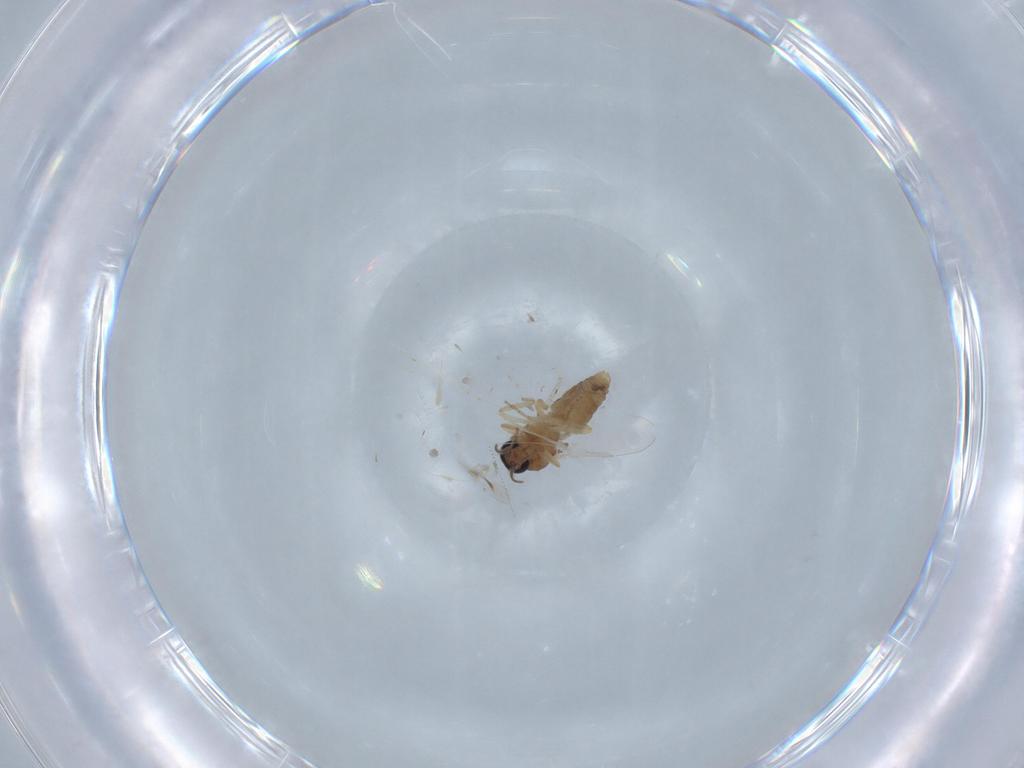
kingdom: Animalia
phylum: Arthropoda
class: Insecta
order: Diptera
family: Ceratopogonidae
